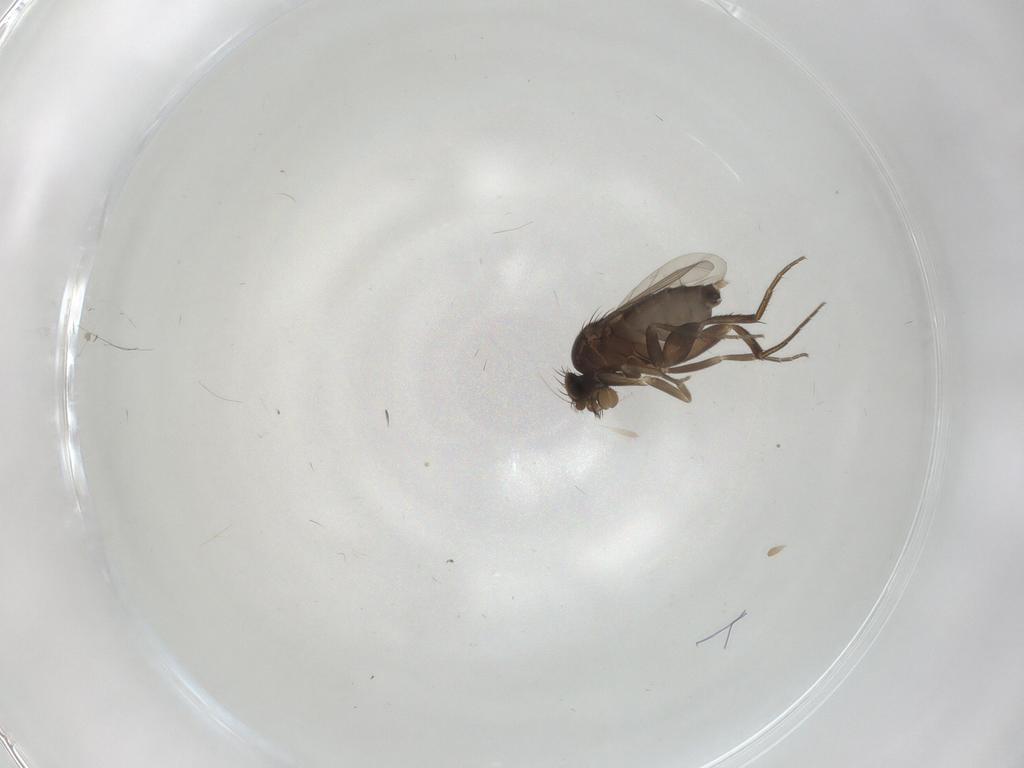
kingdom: Animalia
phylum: Arthropoda
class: Insecta
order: Diptera
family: Phoridae
